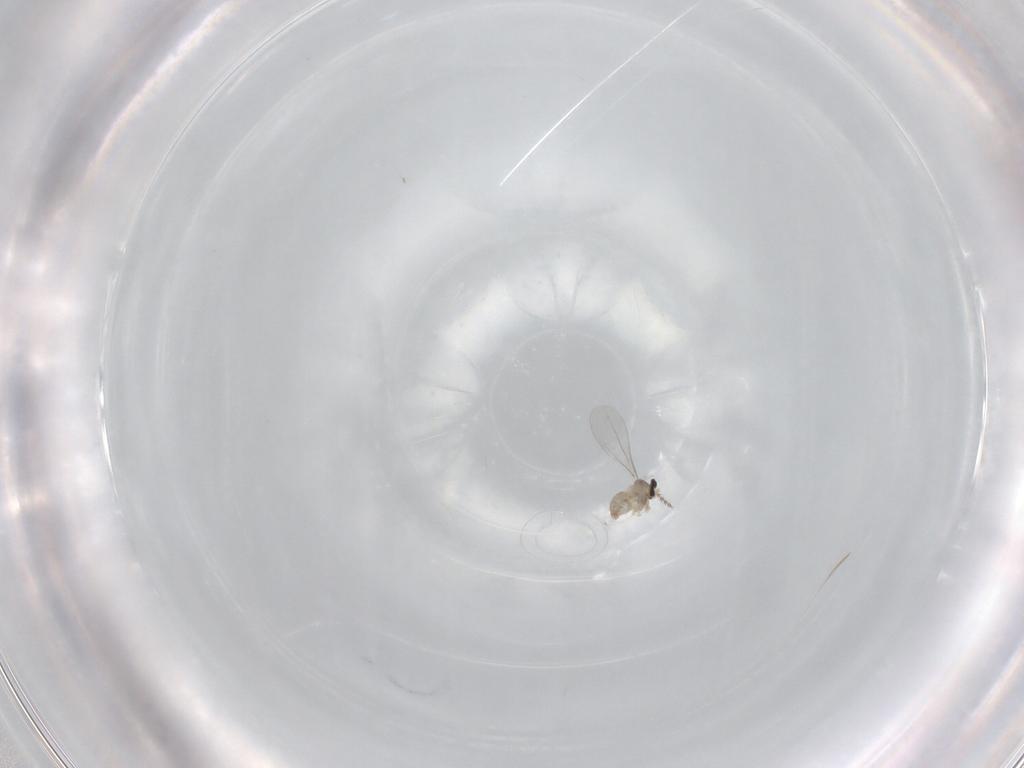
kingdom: Animalia
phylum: Arthropoda
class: Insecta
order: Diptera
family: Cecidomyiidae
